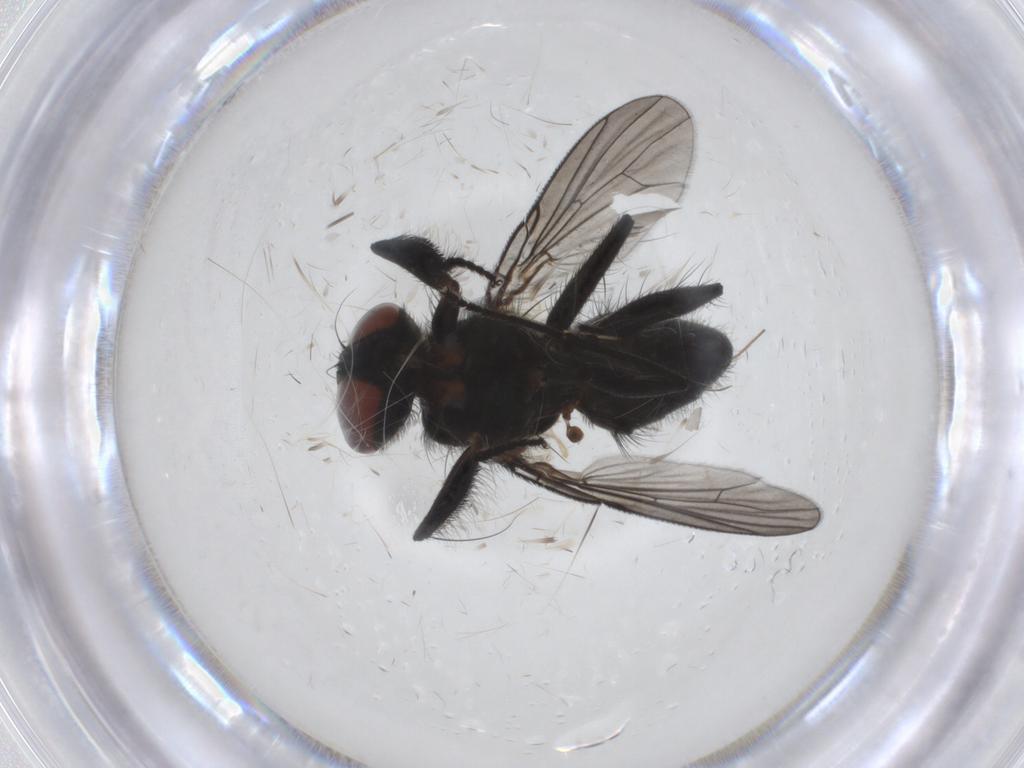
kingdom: Animalia
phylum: Arthropoda
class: Insecta
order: Diptera
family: Muscidae
